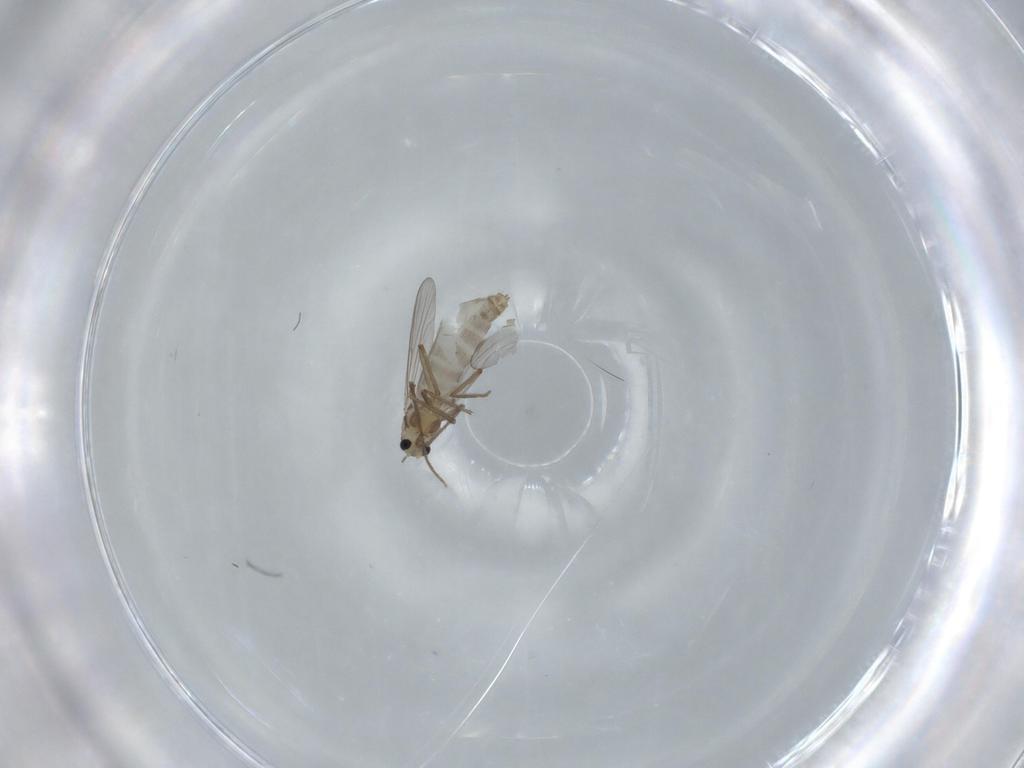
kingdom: Animalia
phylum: Arthropoda
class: Insecta
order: Diptera
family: Chironomidae
